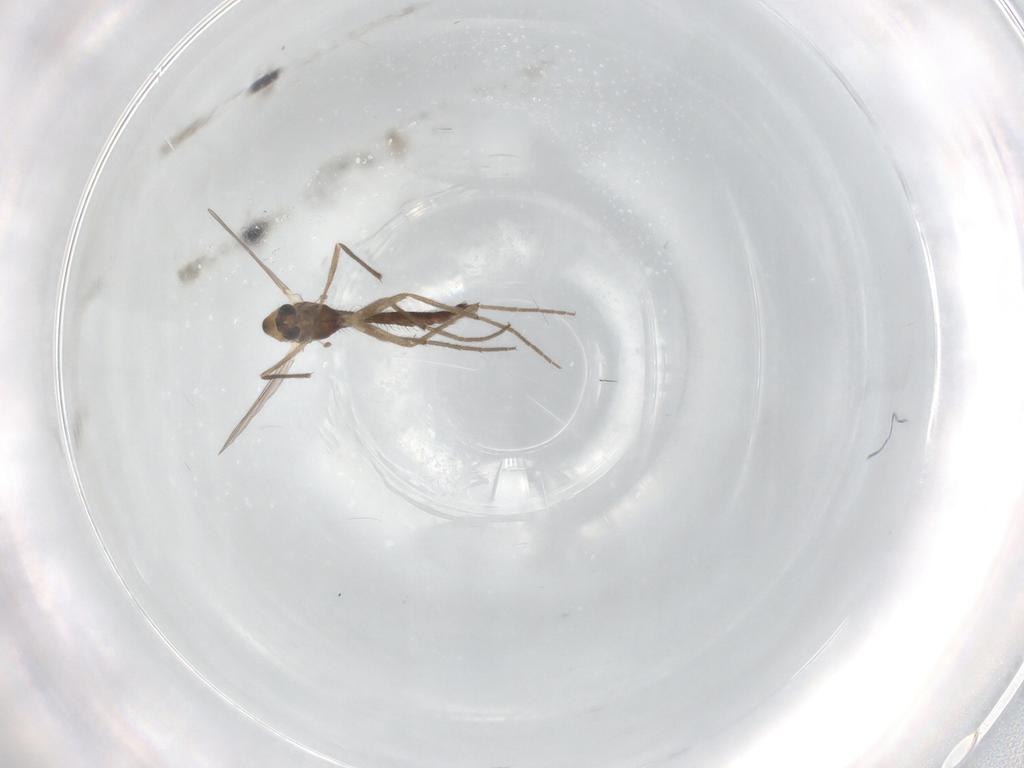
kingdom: Animalia
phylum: Arthropoda
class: Insecta
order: Diptera
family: Chironomidae
